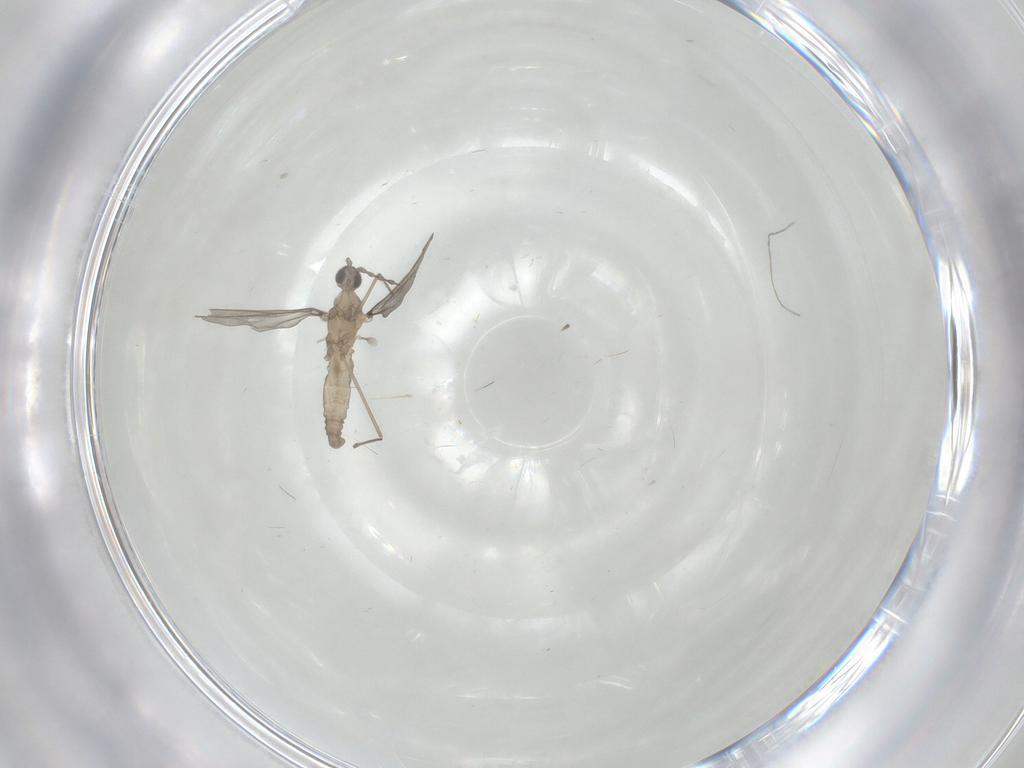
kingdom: Animalia
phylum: Arthropoda
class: Insecta
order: Diptera
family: Cecidomyiidae
